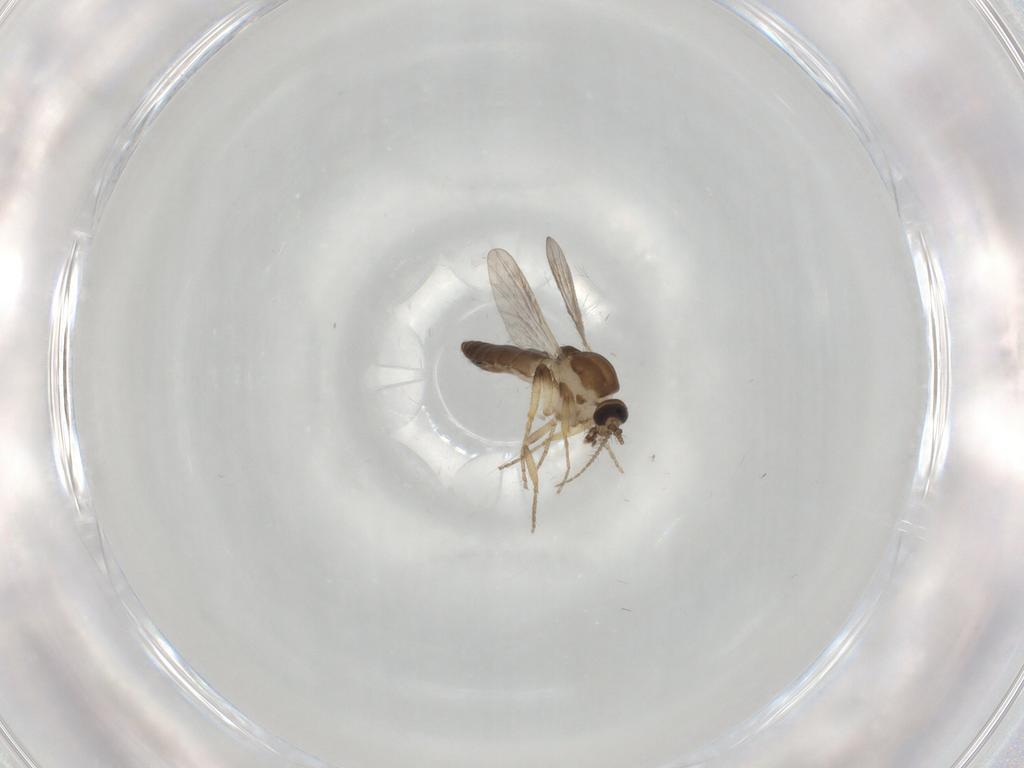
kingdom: Animalia
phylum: Arthropoda
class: Insecta
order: Diptera
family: Ceratopogonidae
